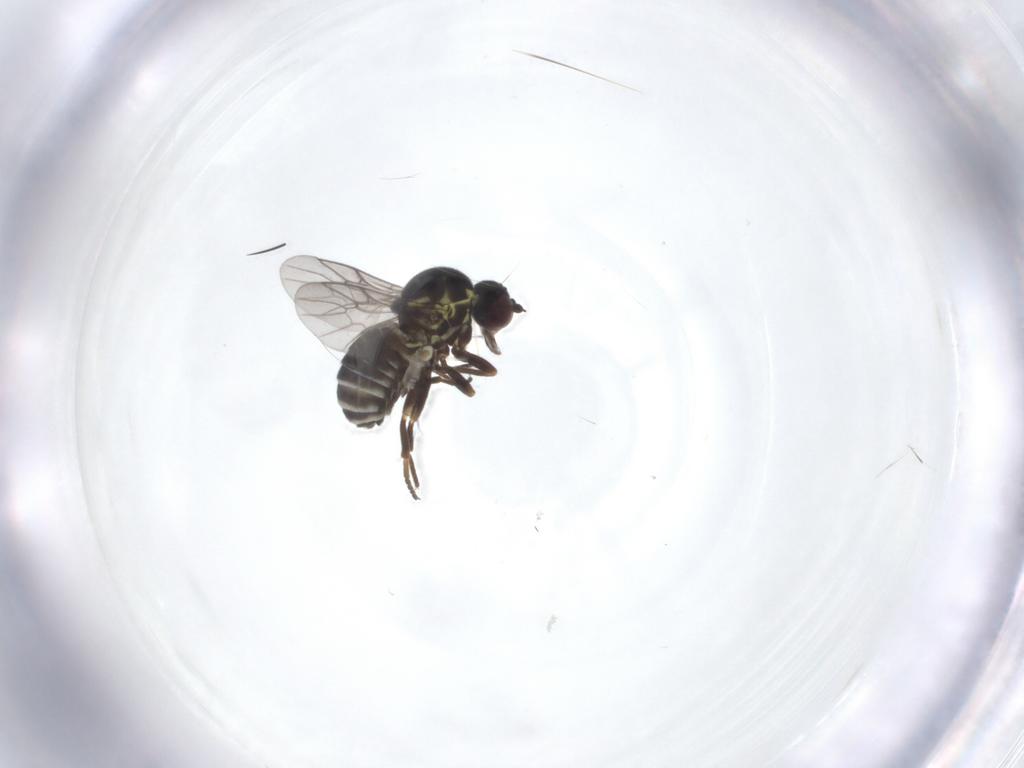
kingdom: Animalia
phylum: Arthropoda
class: Insecta
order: Diptera
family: Bombyliidae
